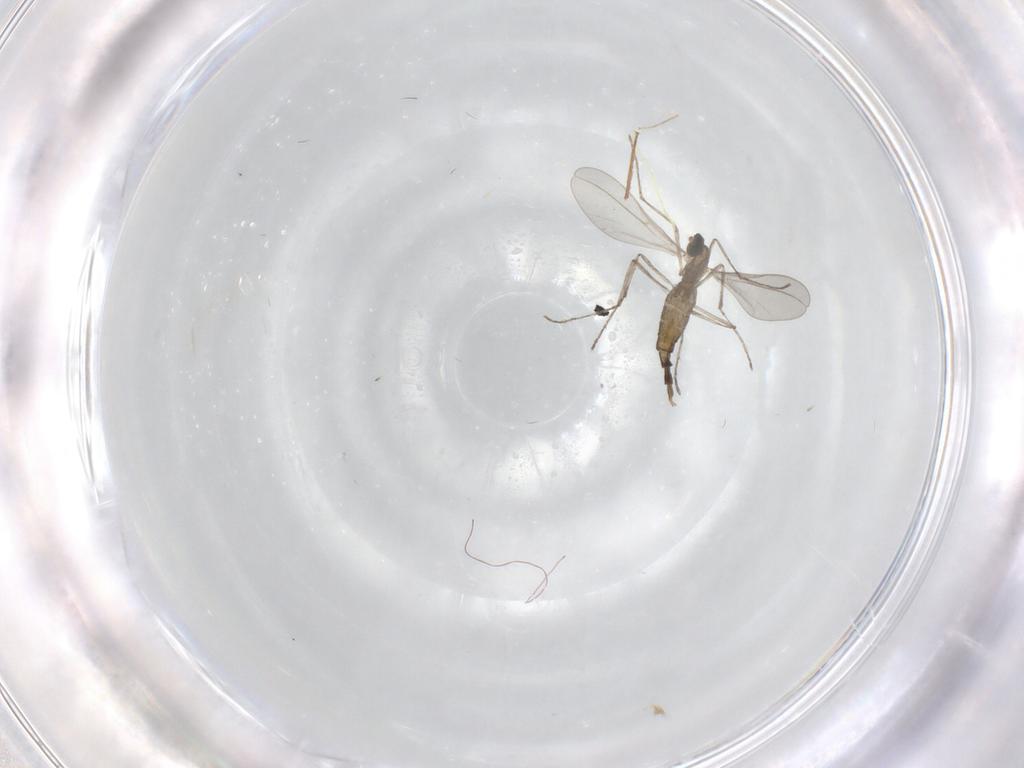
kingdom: Animalia
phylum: Arthropoda
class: Insecta
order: Diptera
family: Chironomidae
